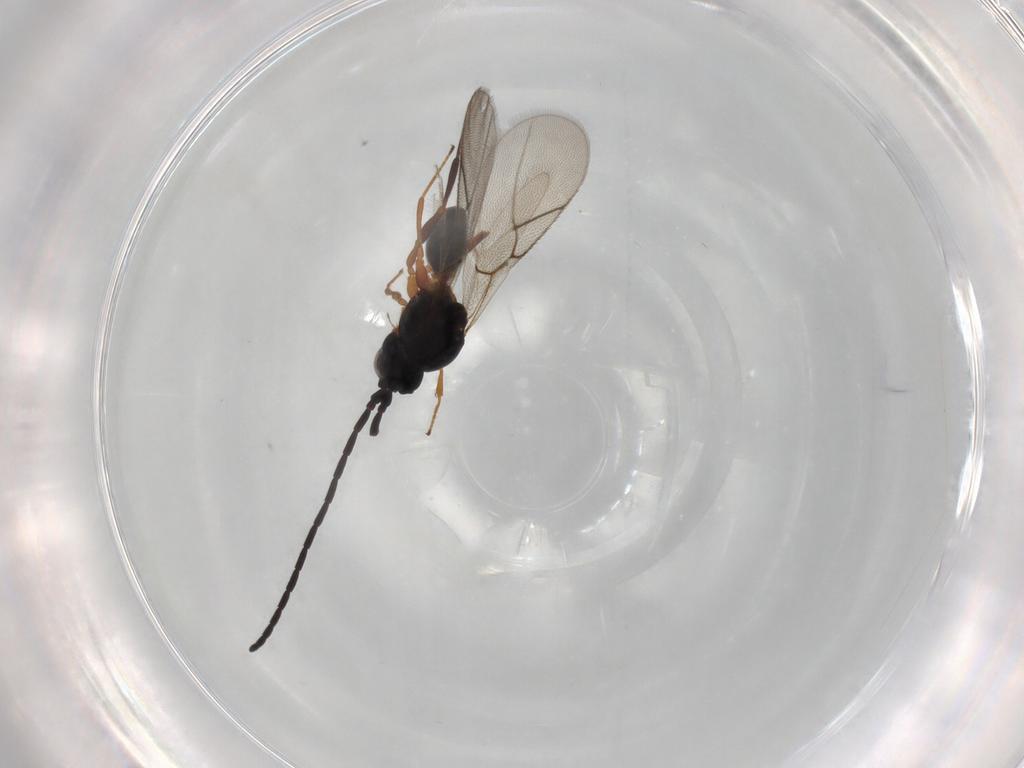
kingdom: Animalia
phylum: Arthropoda
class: Insecta
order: Hymenoptera
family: Figitidae
